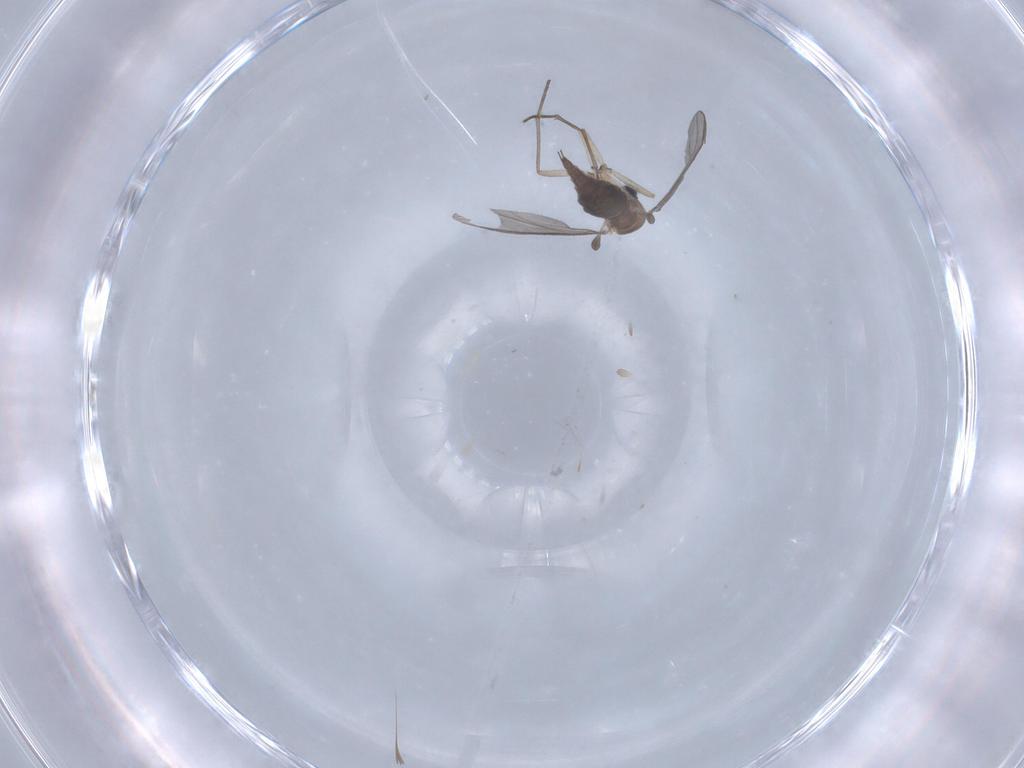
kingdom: Animalia
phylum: Arthropoda
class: Insecta
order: Diptera
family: Sciaridae
